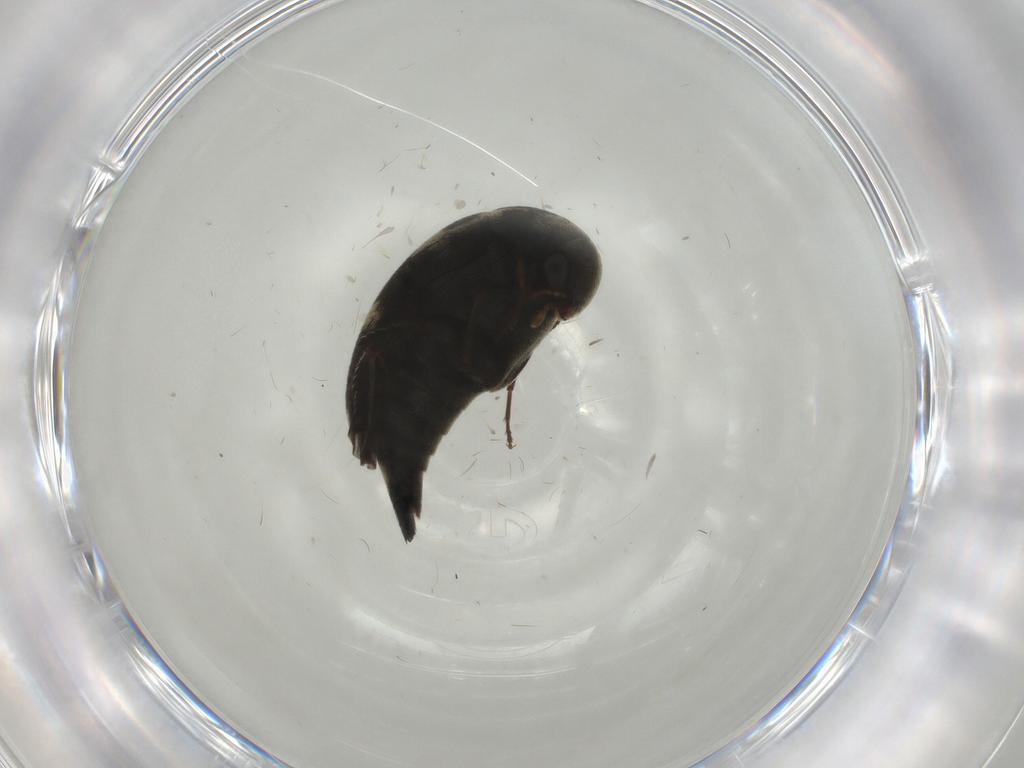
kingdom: Animalia
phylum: Arthropoda
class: Insecta
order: Coleoptera
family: Mordellidae
